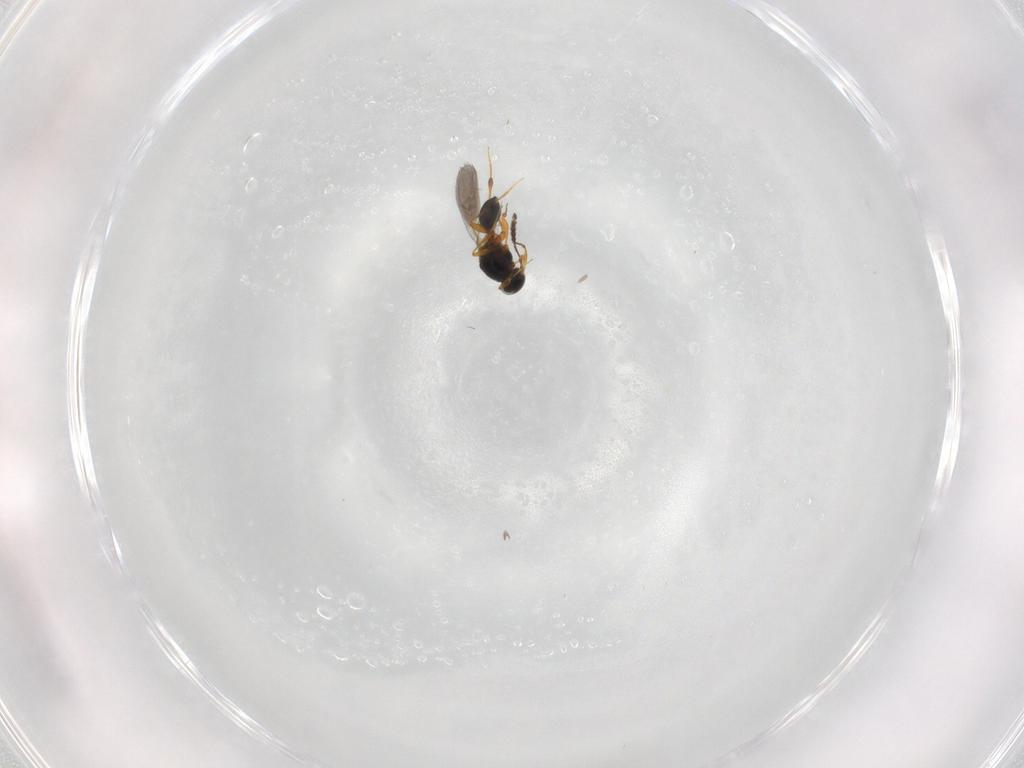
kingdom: Animalia
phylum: Arthropoda
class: Insecta
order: Hymenoptera
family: Platygastridae
